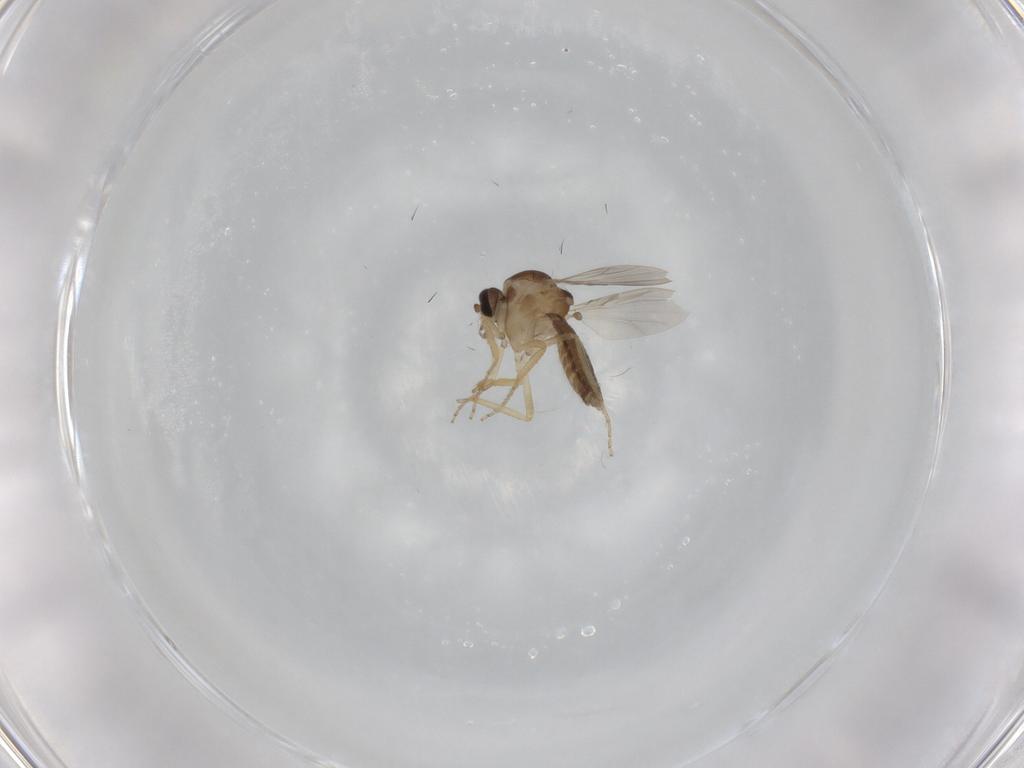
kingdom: Animalia
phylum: Arthropoda
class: Insecta
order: Diptera
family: Ceratopogonidae
